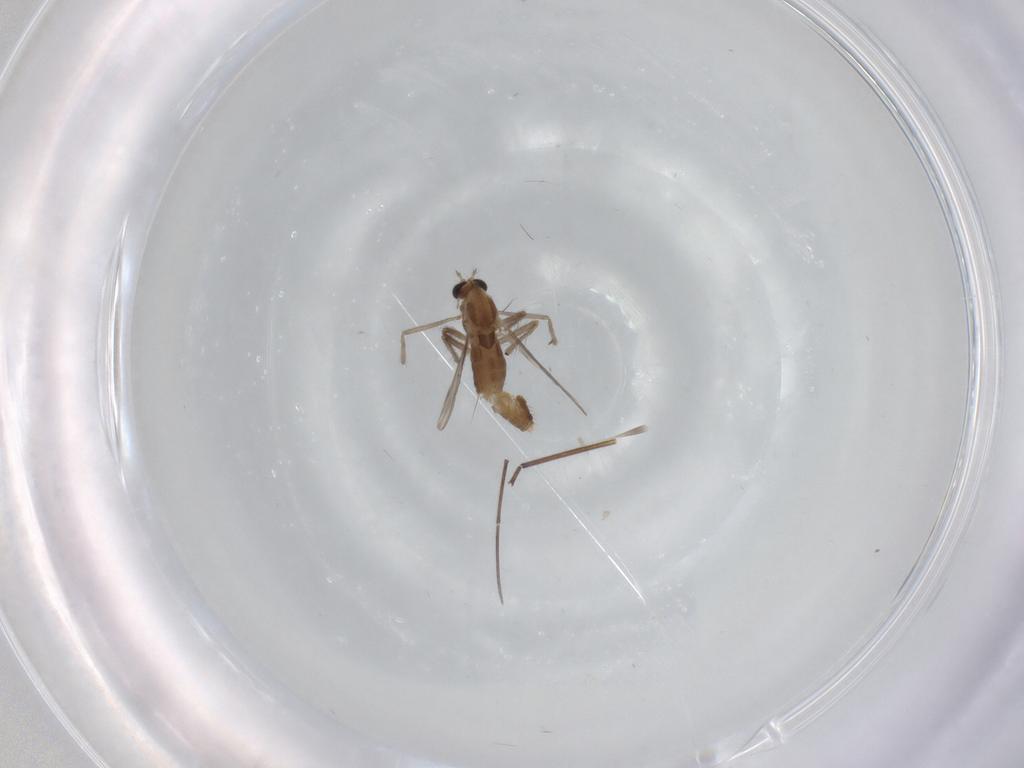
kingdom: Animalia
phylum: Arthropoda
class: Insecta
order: Diptera
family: Chironomidae
